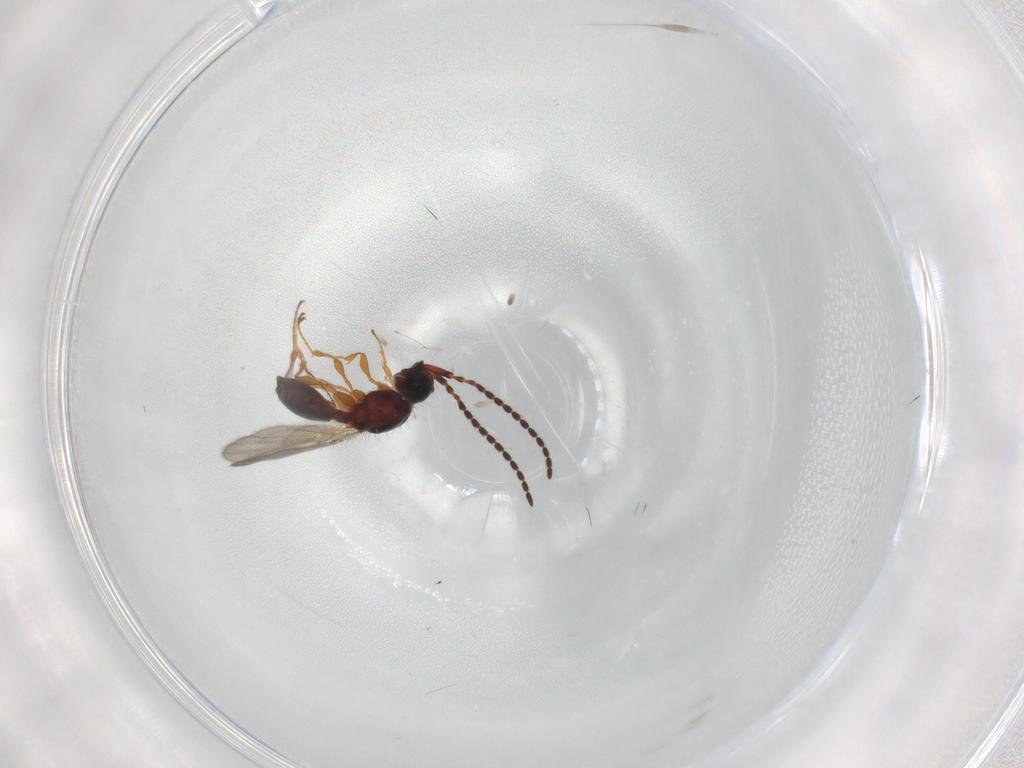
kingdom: Animalia
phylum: Arthropoda
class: Insecta
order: Hymenoptera
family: Diapriidae
